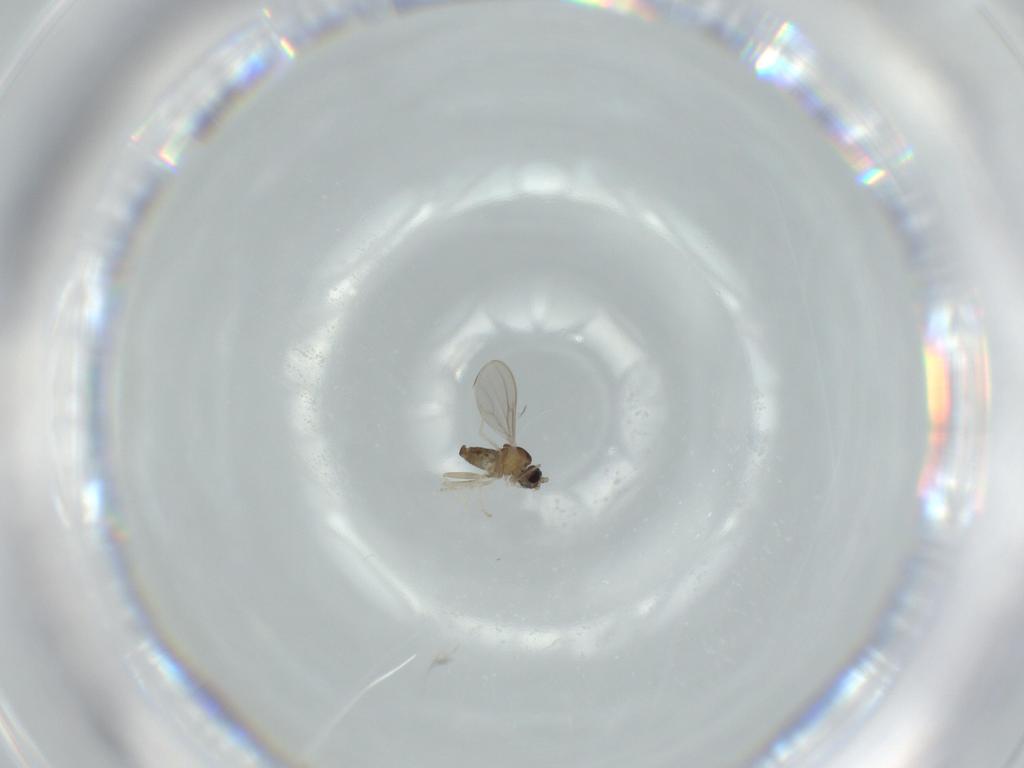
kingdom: Animalia
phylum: Arthropoda
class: Insecta
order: Diptera
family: Cecidomyiidae
